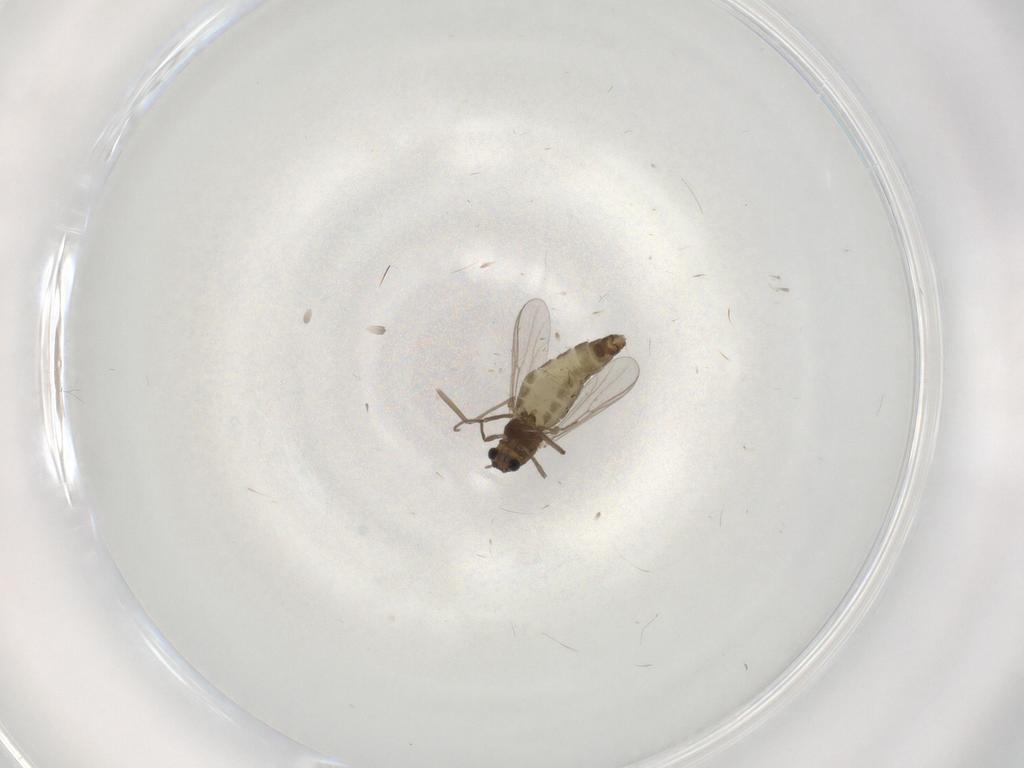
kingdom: Animalia
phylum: Arthropoda
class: Insecta
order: Diptera
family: Chironomidae
